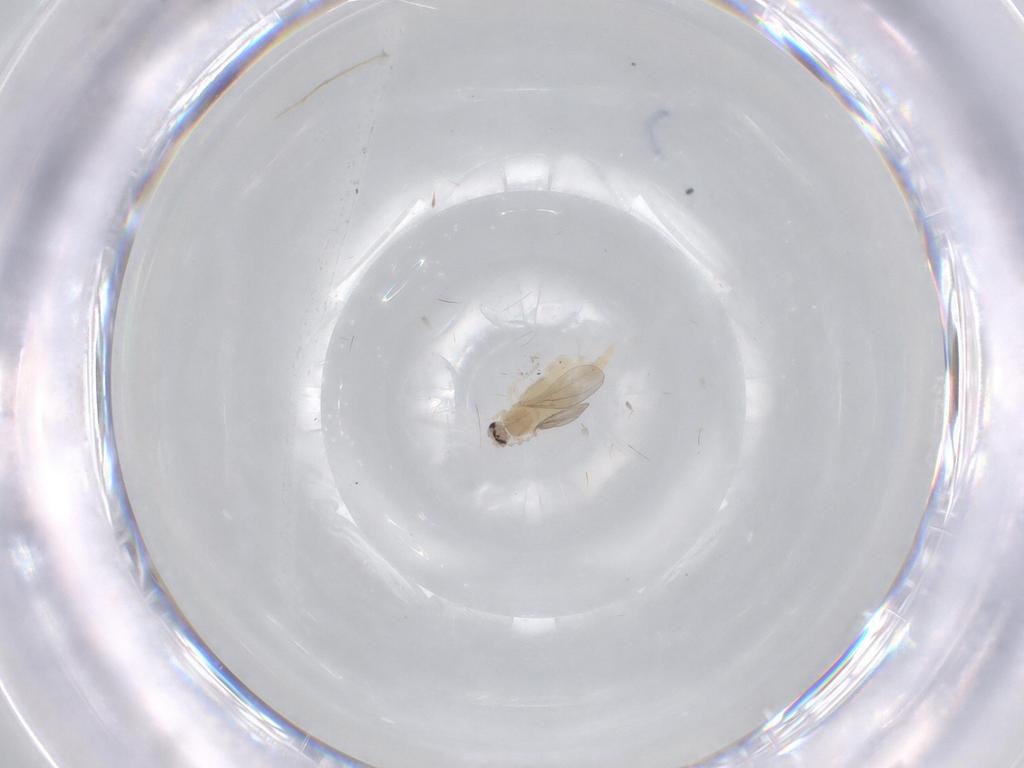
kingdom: Animalia
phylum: Arthropoda
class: Insecta
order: Diptera
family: Cecidomyiidae
